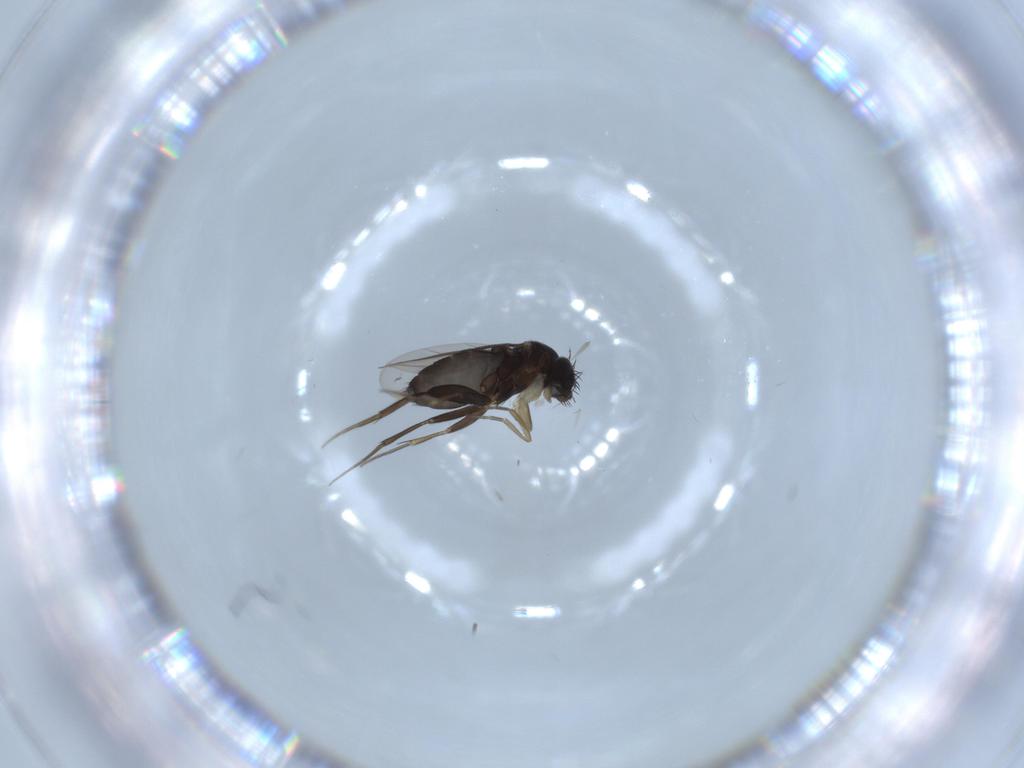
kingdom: Animalia
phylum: Arthropoda
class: Insecta
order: Diptera
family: Phoridae
